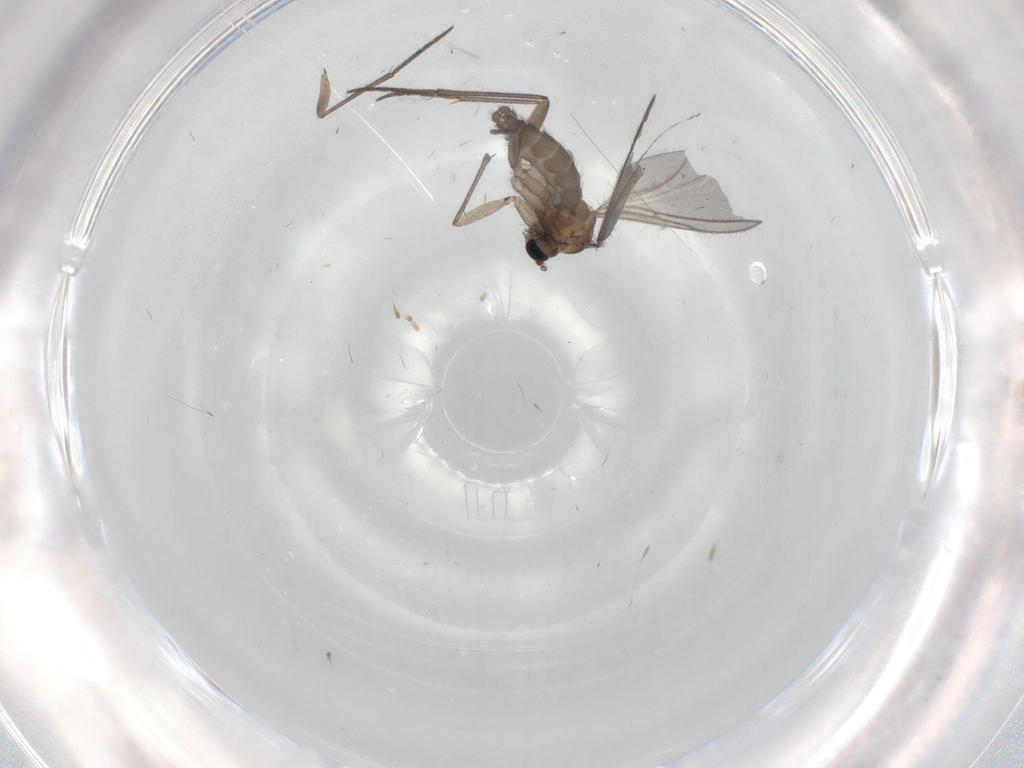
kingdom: Animalia
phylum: Arthropoda
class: Insecta
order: Diptera
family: Sciaridae
